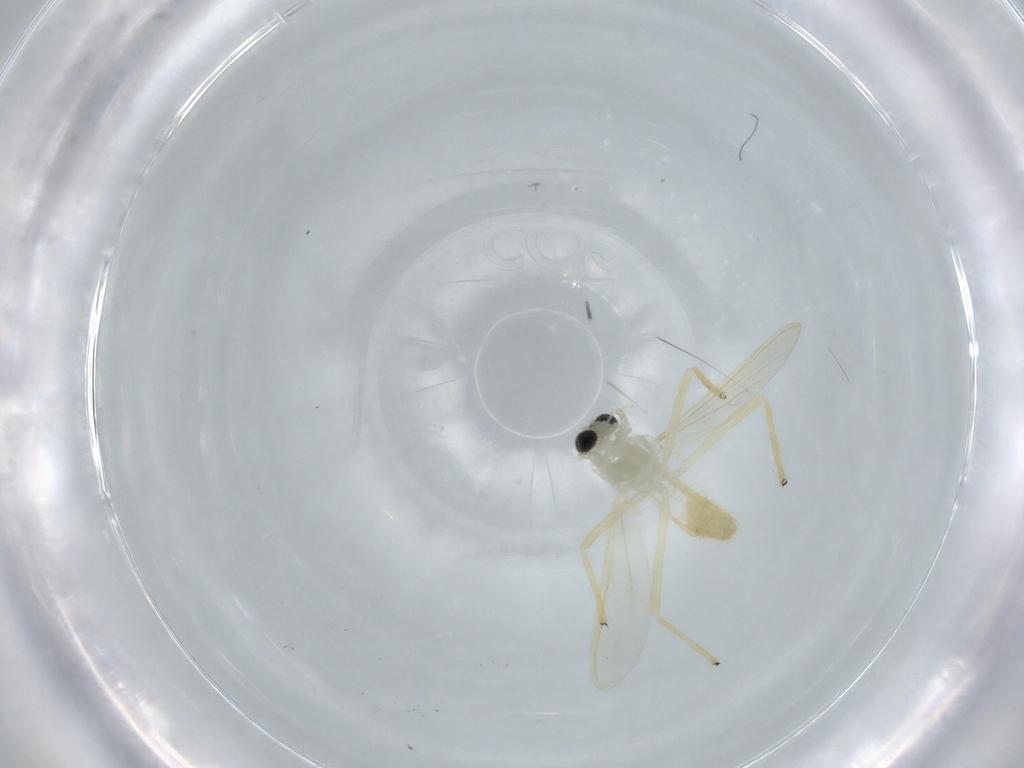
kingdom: Animalia
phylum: Arthropoda
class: Insecta
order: Diptera
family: Chironomidae
